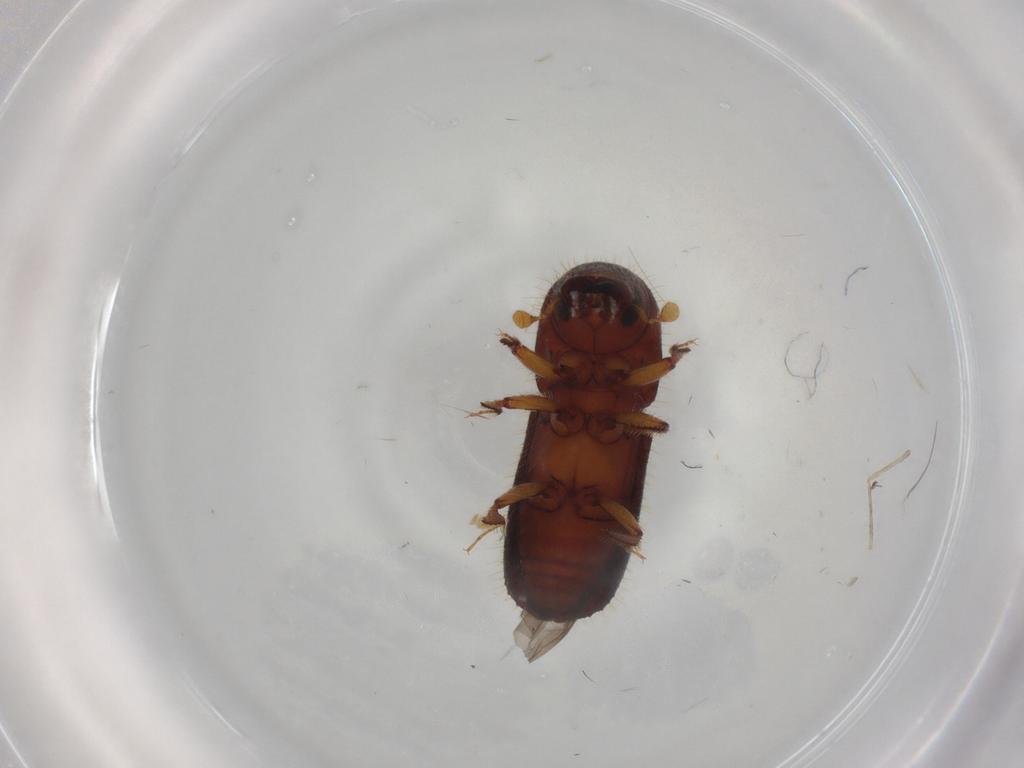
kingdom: Animalia
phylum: Arthropoda
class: Insecta
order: Coleoptera
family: Curculionidae
